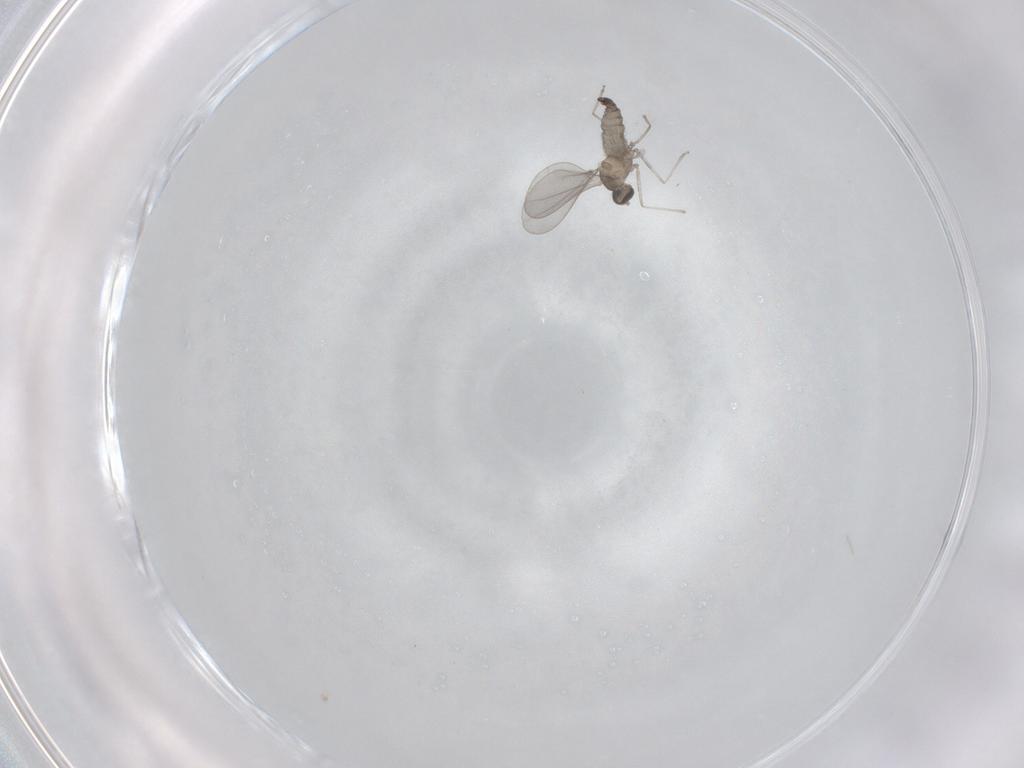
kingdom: Animalia
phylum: Arthropoda
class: Insecta
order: Diptera
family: Cecidomyiidae
